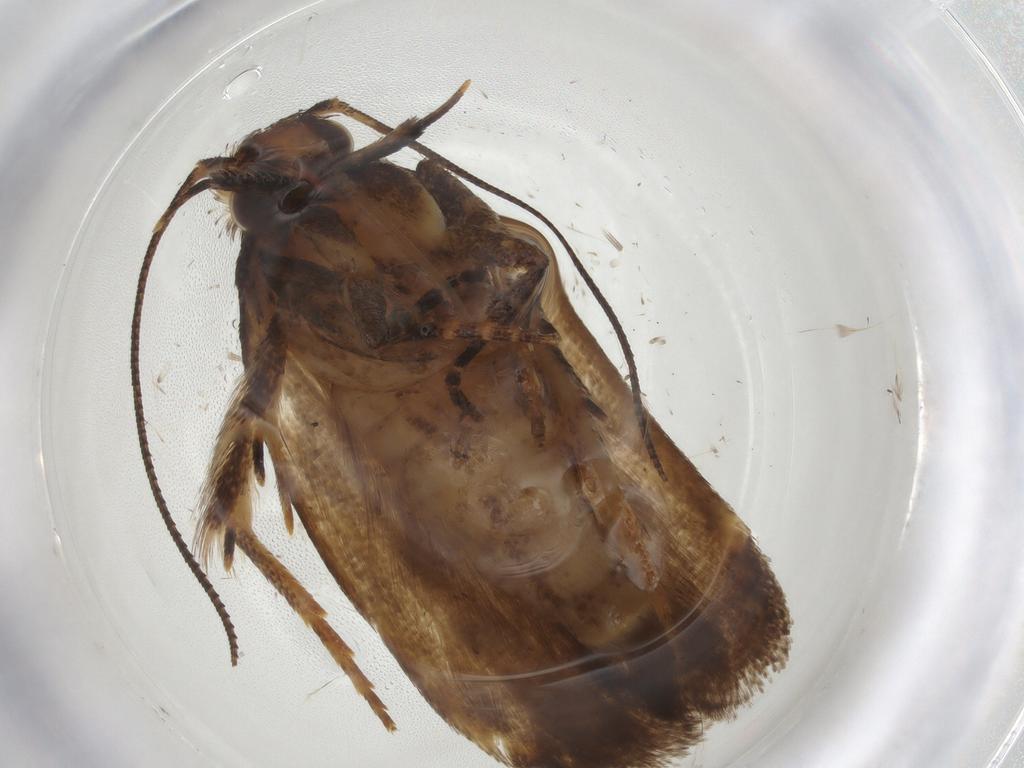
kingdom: Animalia
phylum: Arthropoda
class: Insecta
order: Lepidoptera
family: Gelechiidae
